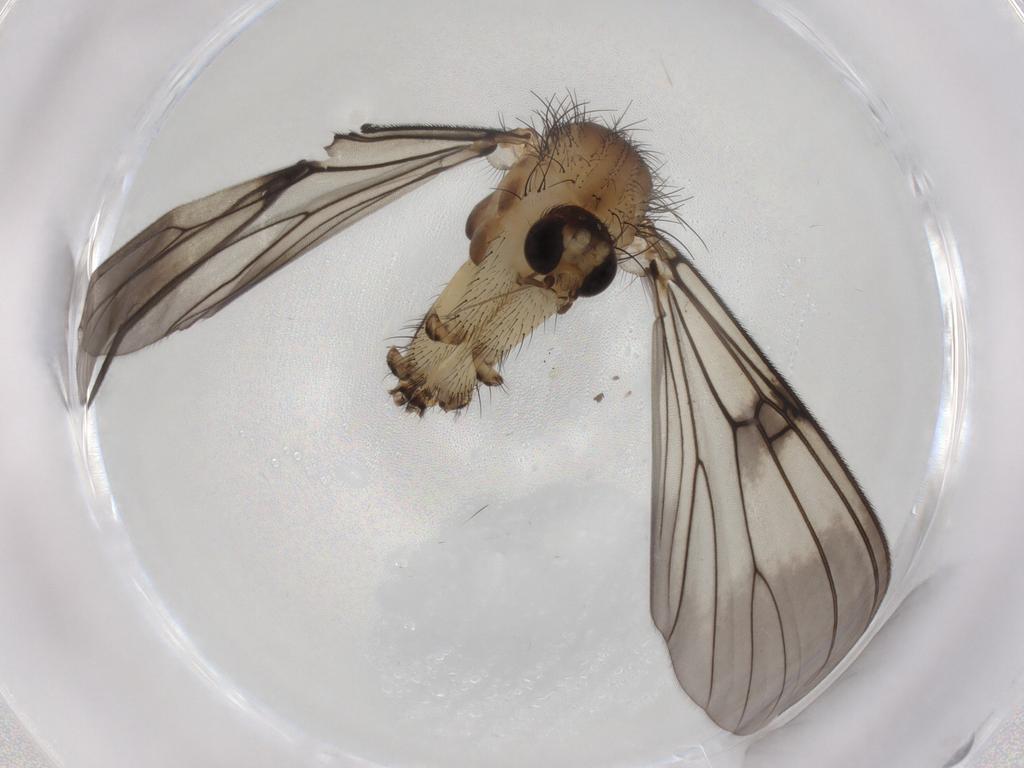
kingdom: Animalia
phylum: Arthropoda
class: Insecta
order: Diptera
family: Mycetophilidae
